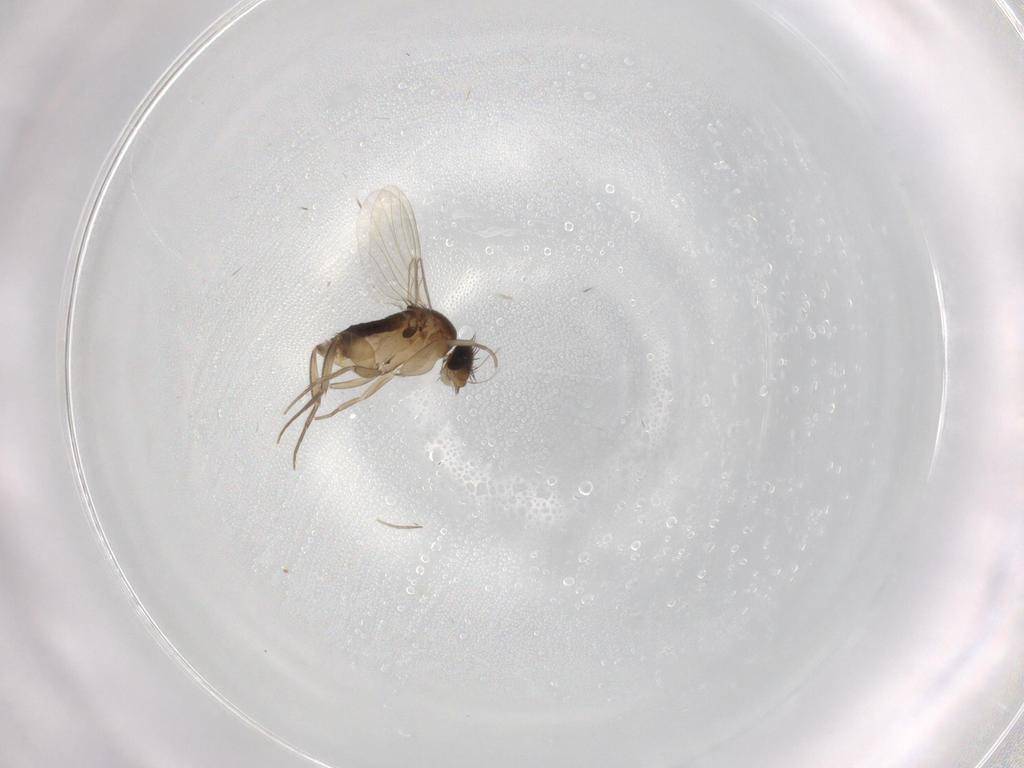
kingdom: Animalia
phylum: Arthropoda
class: Insecta
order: Diptera
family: Phoridae
